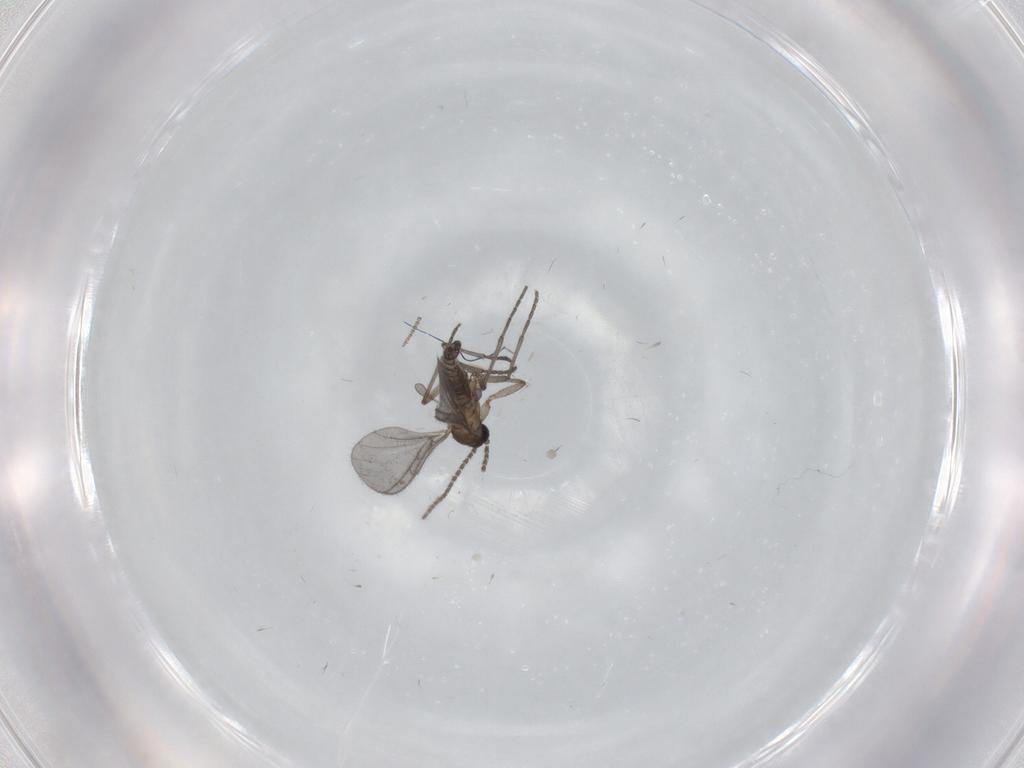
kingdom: Animalia
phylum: Arthropoda
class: Insecta
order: Diptera
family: Sciaridae
